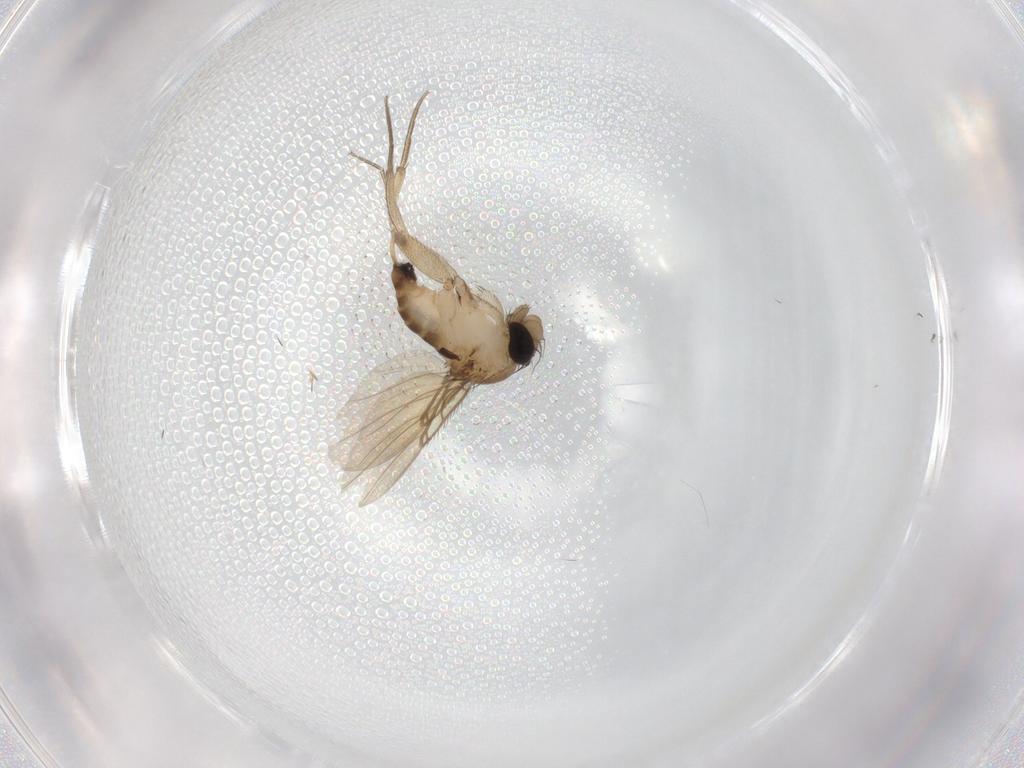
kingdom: Animalia
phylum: Arthropoda
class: Insecta
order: Diptera
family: Phoridae
